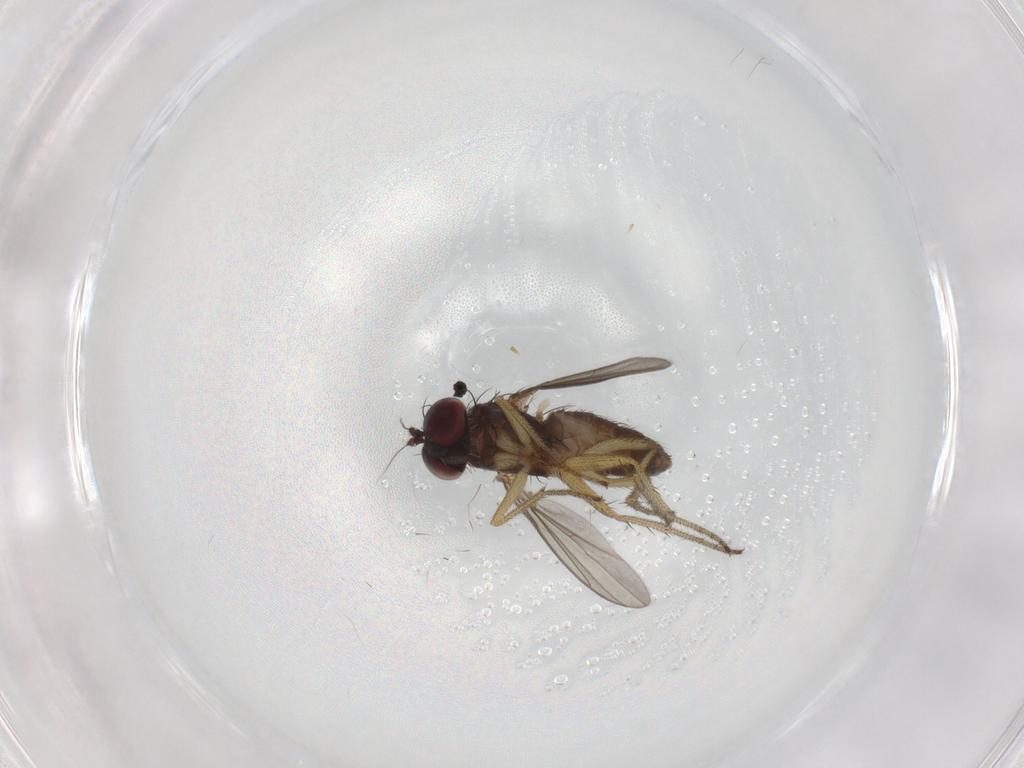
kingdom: Animalia
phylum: Arthropoda
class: Insecta
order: Diptera
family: Dolichopodidae
